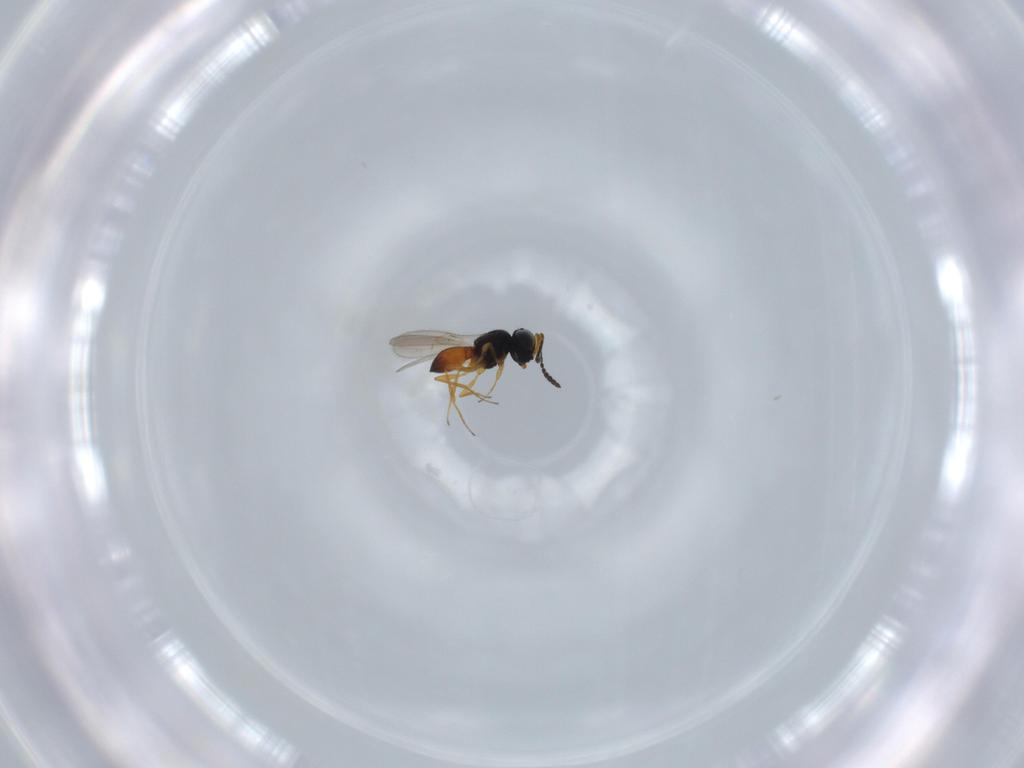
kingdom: Animalia
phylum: Arthropoda
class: Insecta
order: Hymenoptera
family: Scelionidae
